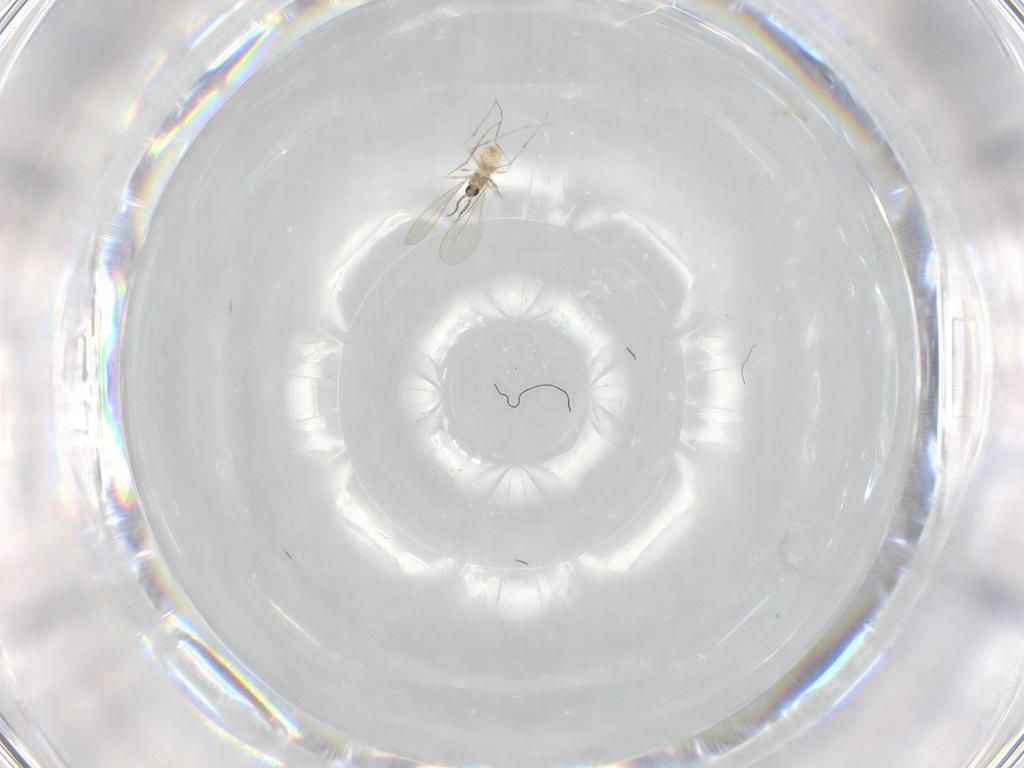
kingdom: Animalia
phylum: Arthropoda
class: Insecta
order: Diptera
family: Cecidomyiidae
